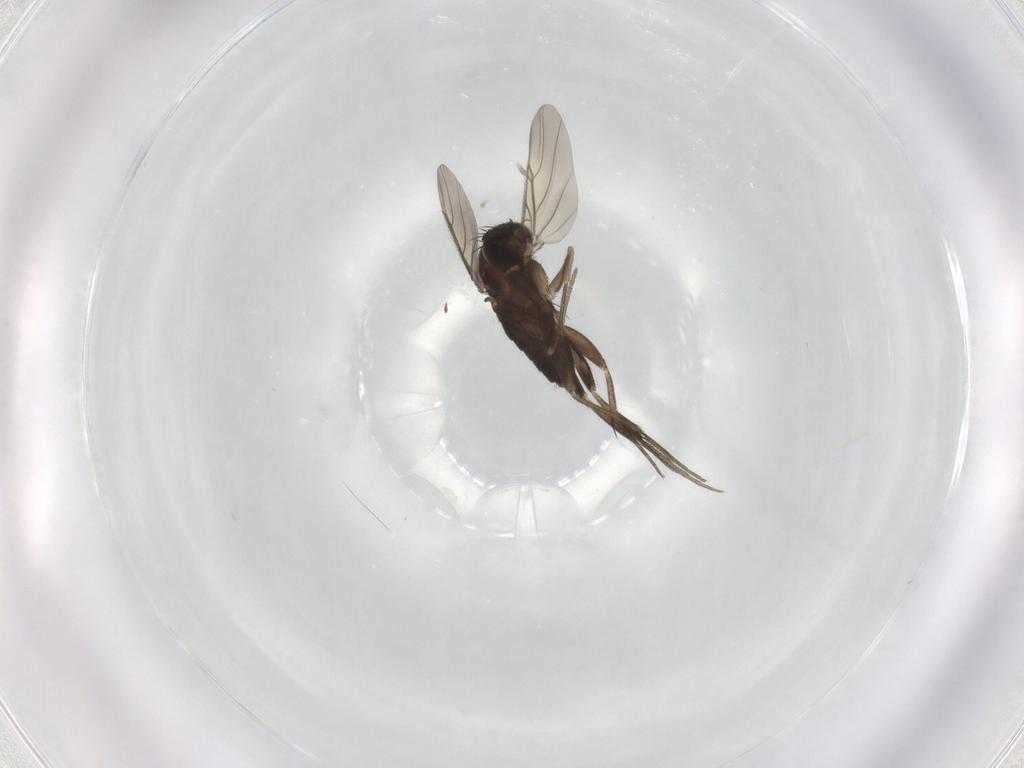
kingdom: Animalia
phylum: Arthropoda
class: Insecta
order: Diptera
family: Phoridae
